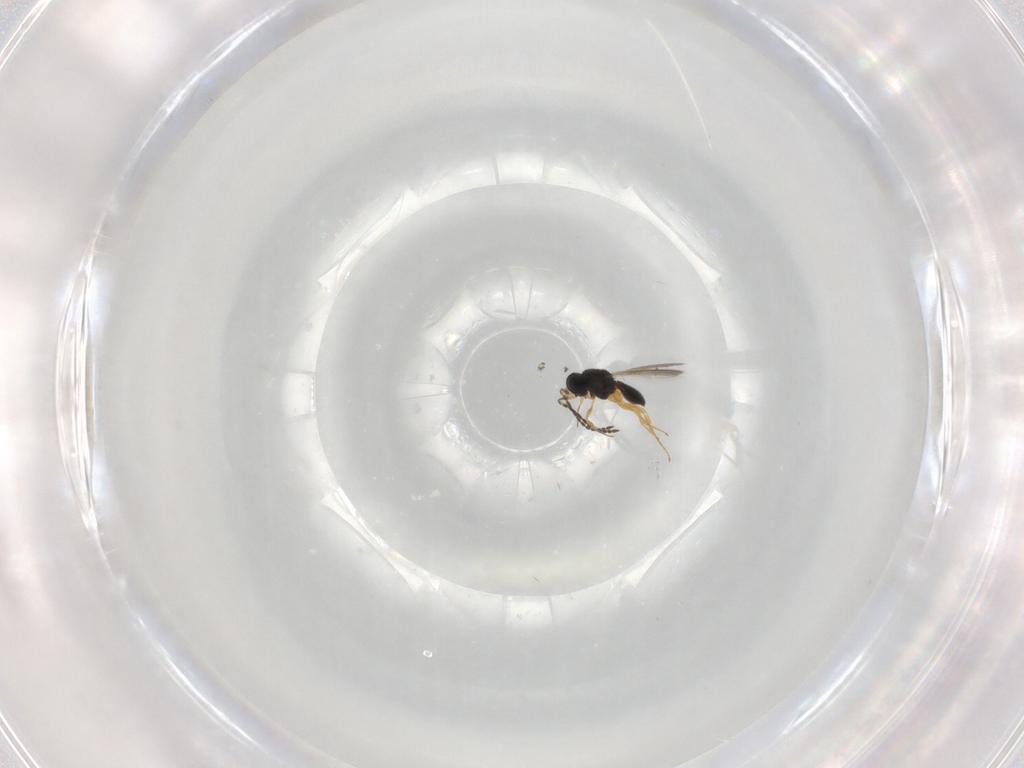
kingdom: Animalia
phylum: Arthropoda
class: Insecta
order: Hymenoptera
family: Scelionidae
